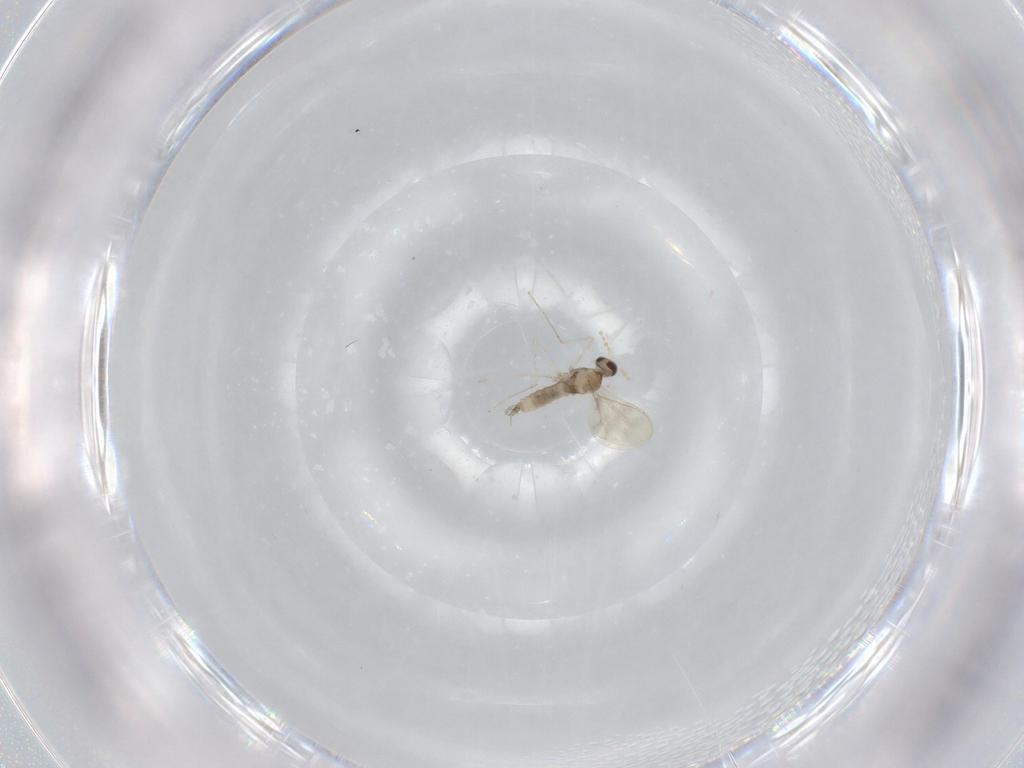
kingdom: Animalia
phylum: Arthropoda
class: Insecta
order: Diptera
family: Cecidomyiidae
